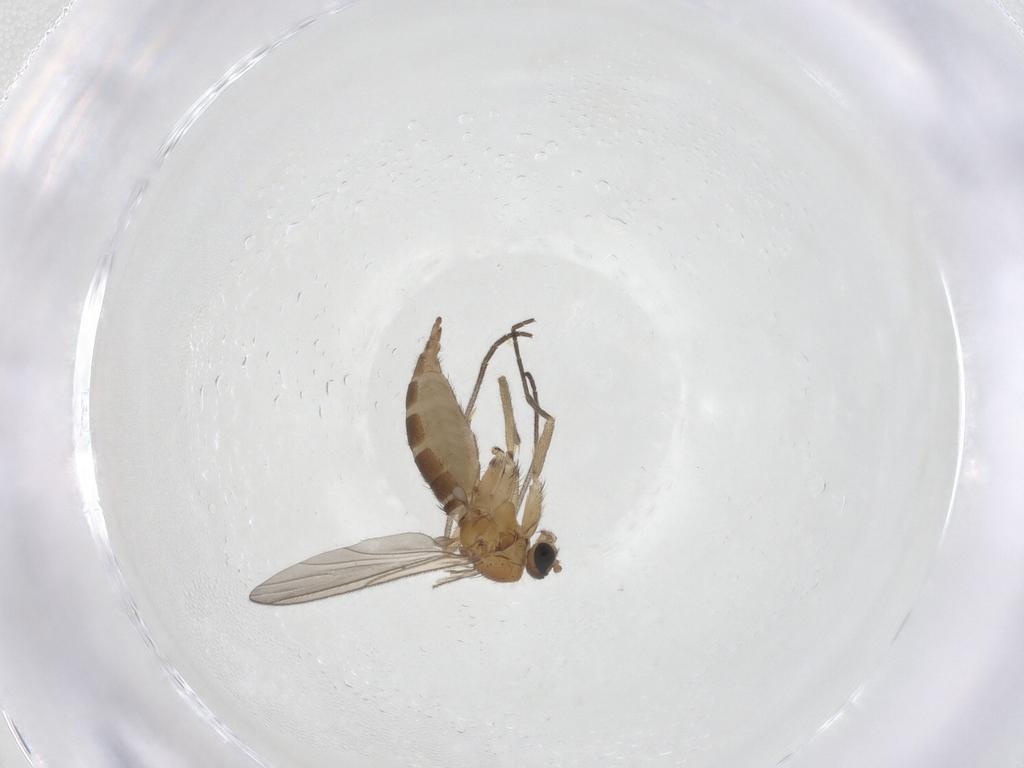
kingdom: Animalia
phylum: Arthropoda
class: Insecta
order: Diptera
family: Sciaridae
